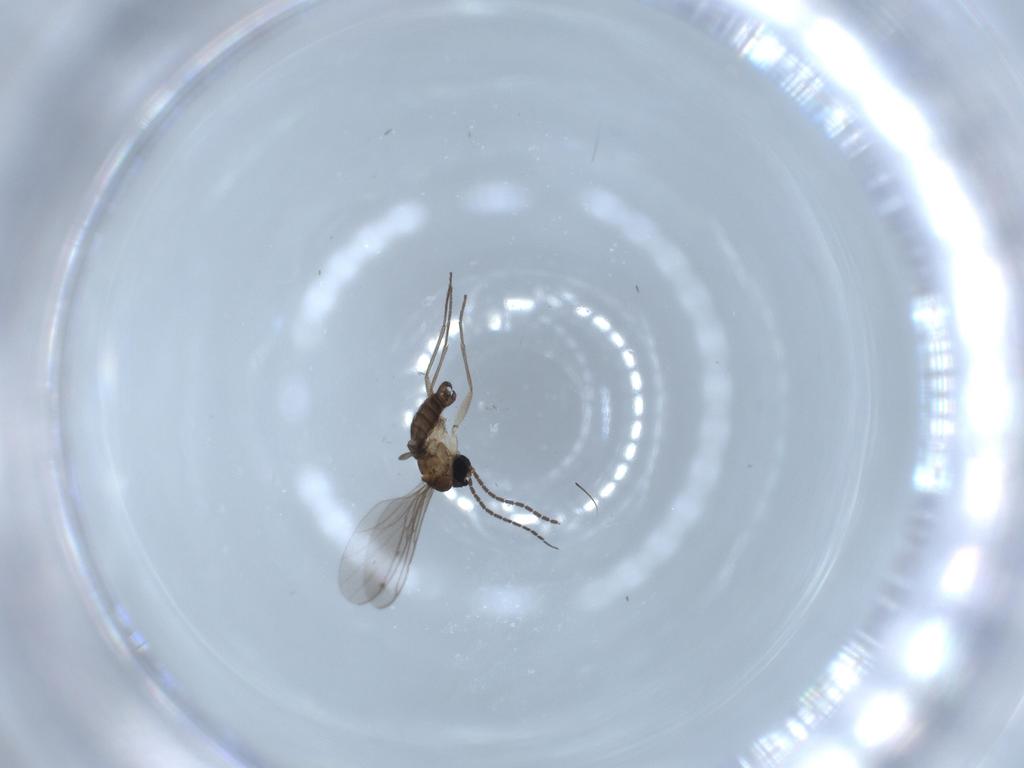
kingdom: Animalia
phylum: Arthropoda
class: Insecta
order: Diptera
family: Sciaridae
